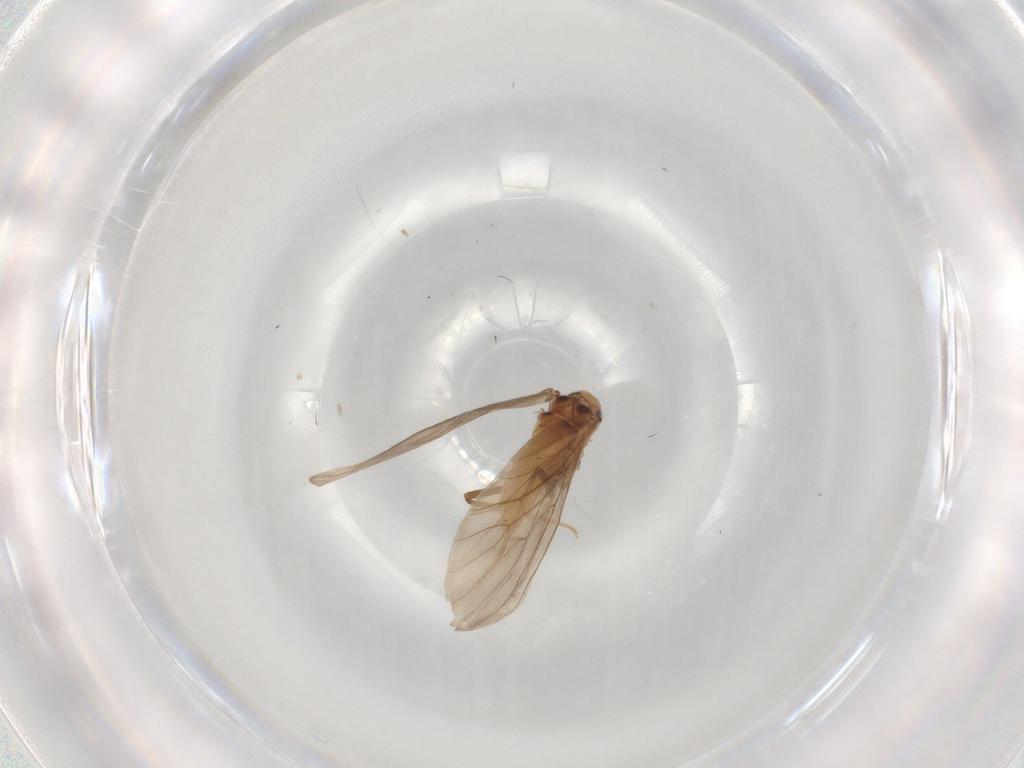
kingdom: Animalia
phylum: Arthropoda
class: Insecta
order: Neuroptera
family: Coniopterygidae
